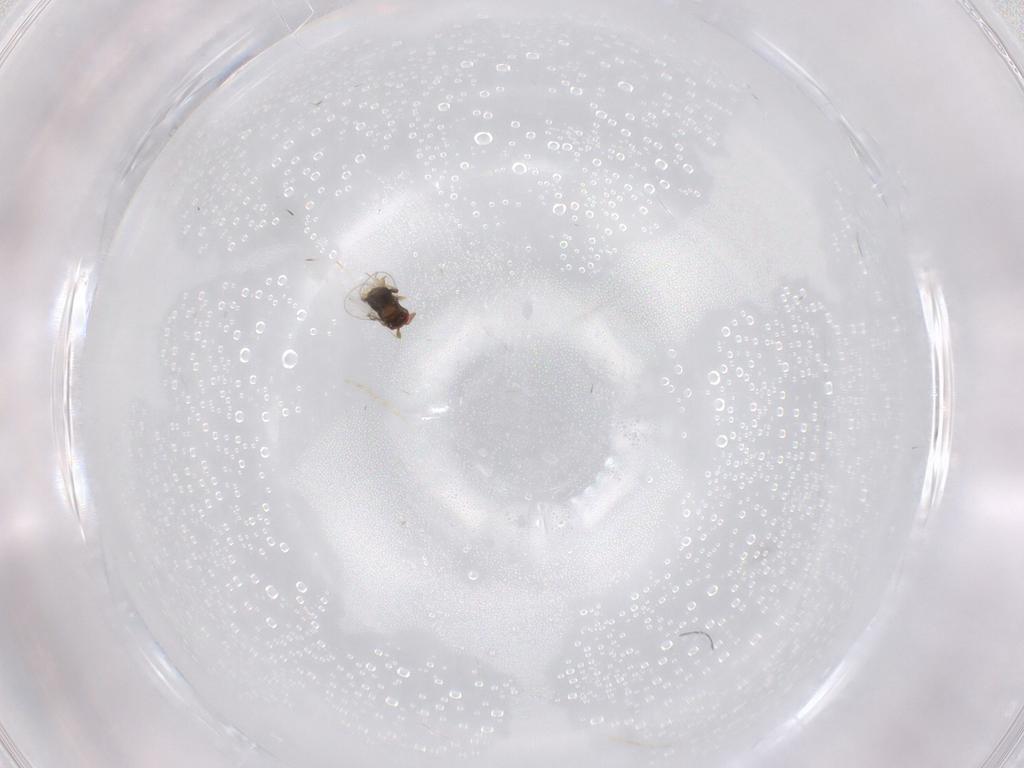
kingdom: Animalia
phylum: Arthropoda
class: Insecta
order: Hymenoptera
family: Trichogrammatidae
